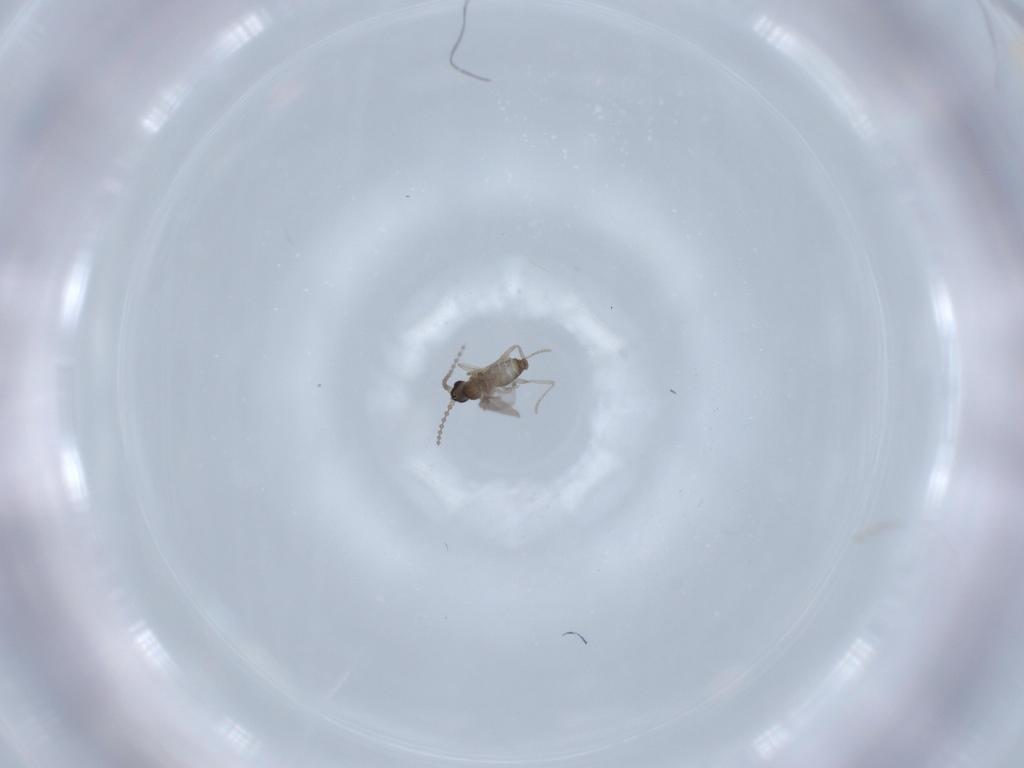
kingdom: Animalia
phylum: Arthropoda
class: Insecta
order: Diptera
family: Cecidomyiidae
